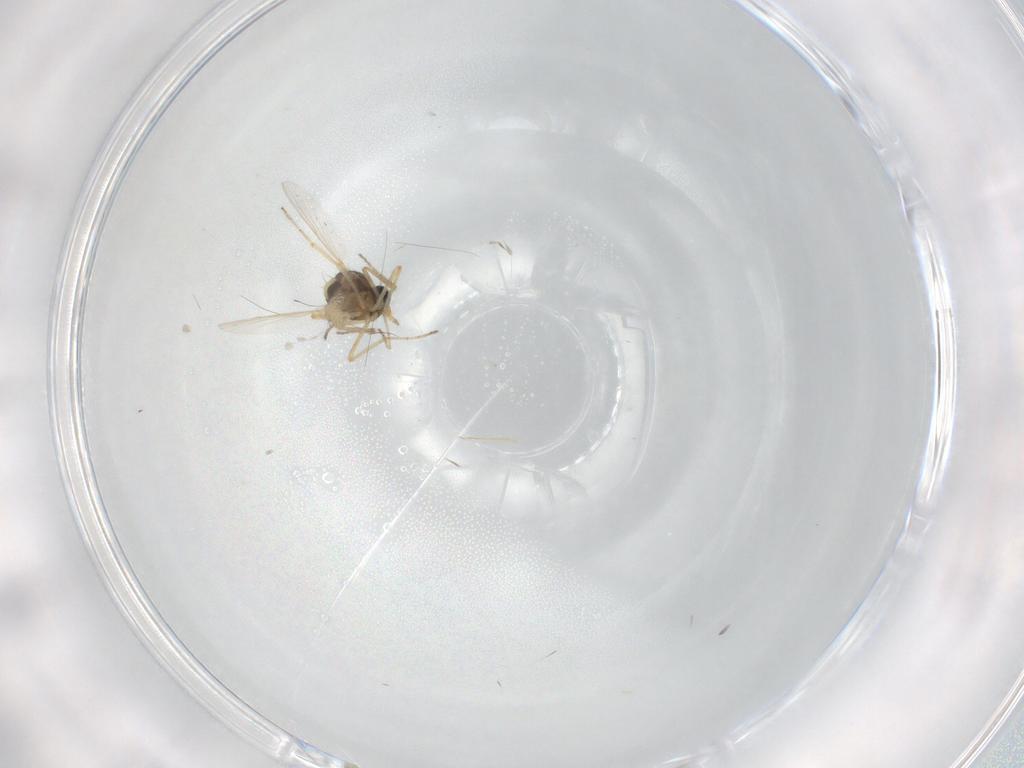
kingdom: Animalia
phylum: Arthropoda
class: Insecta
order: Diptera
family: Ceratopogonidae
